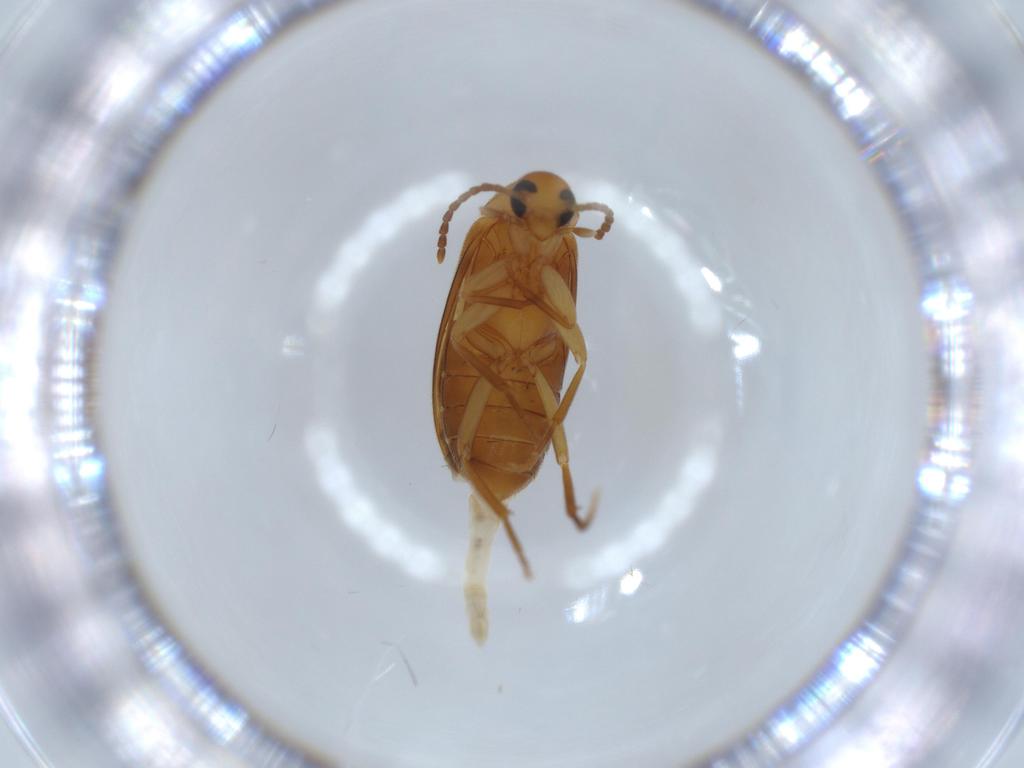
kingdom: Animalia
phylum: Arthropoda
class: Insecta
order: Coleoptera
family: Scraptiidae
